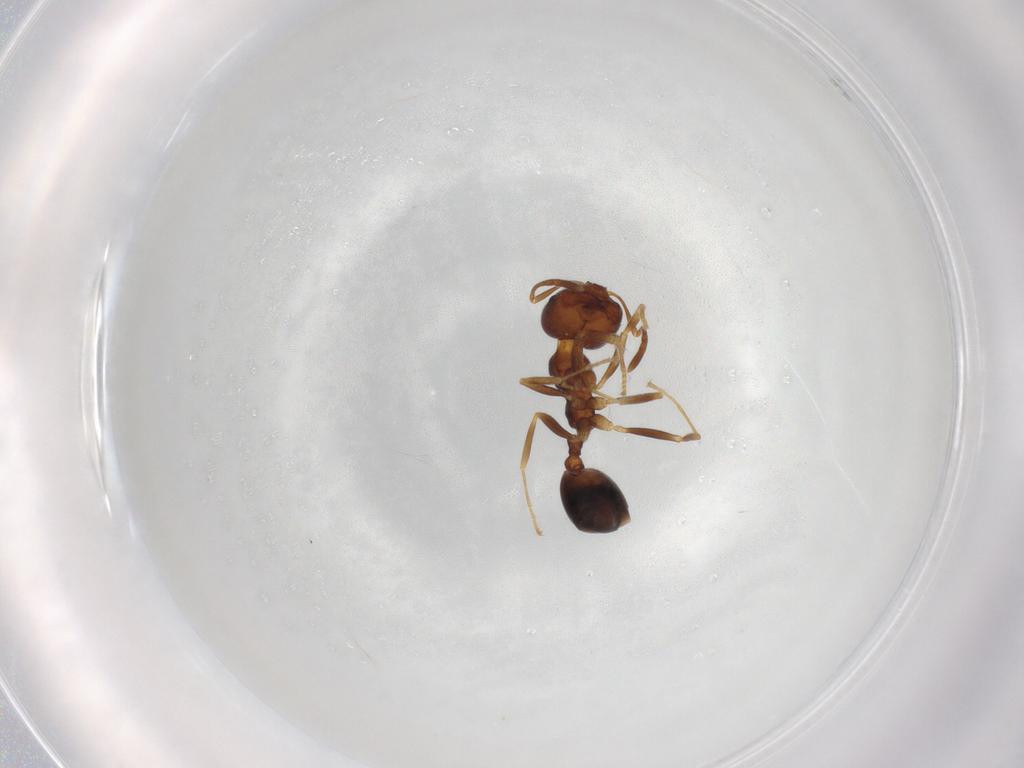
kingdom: Animalia
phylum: Arthropoda
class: Insecta
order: Hymenoptera
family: Formicidae
